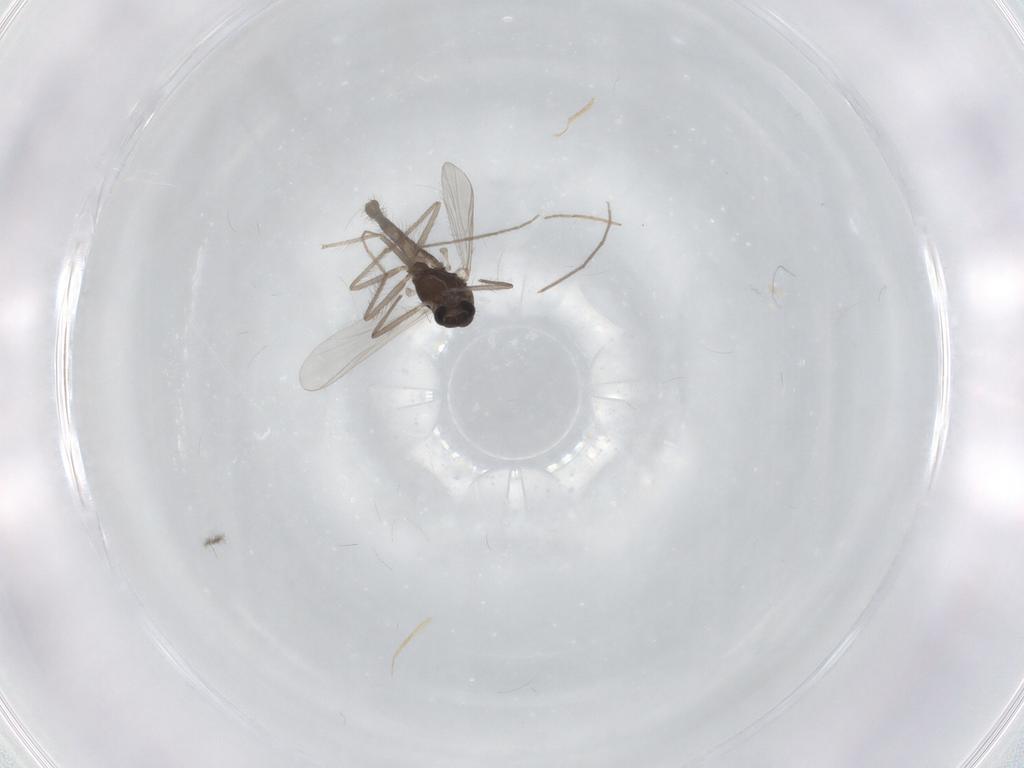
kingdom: Animalia
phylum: Arthropoda
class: Insecta
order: Diptera
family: Chironomidae
